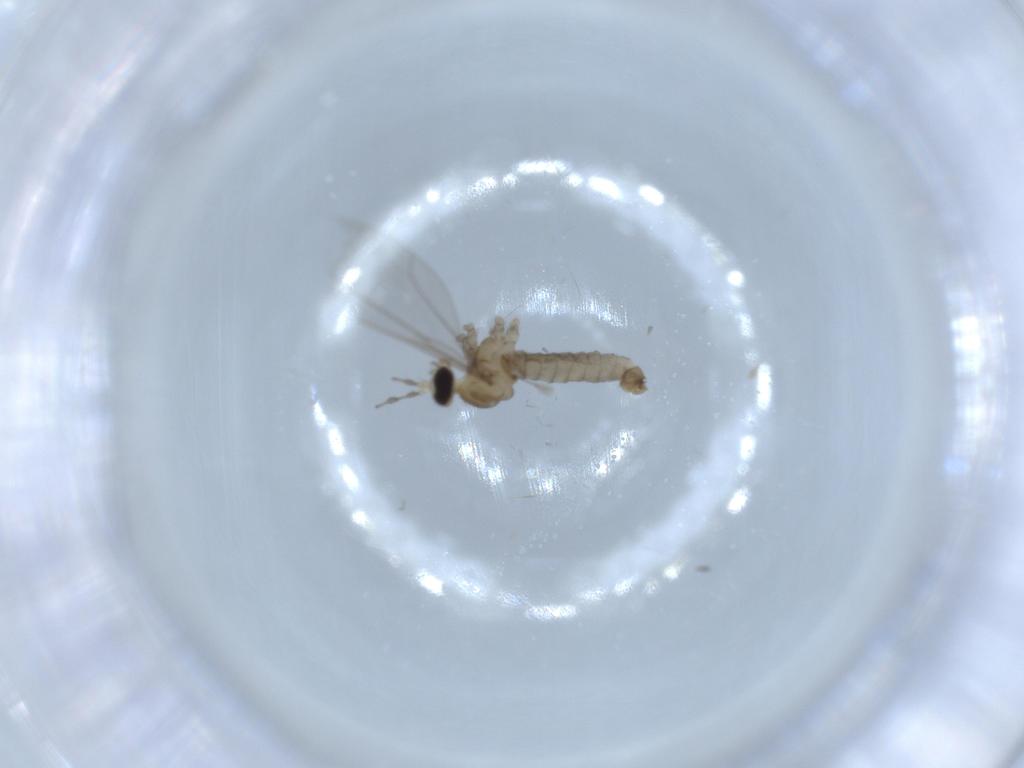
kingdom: Animalia
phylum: Arthropoda
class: Insecta
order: Diptera
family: Cecidomyiidae
